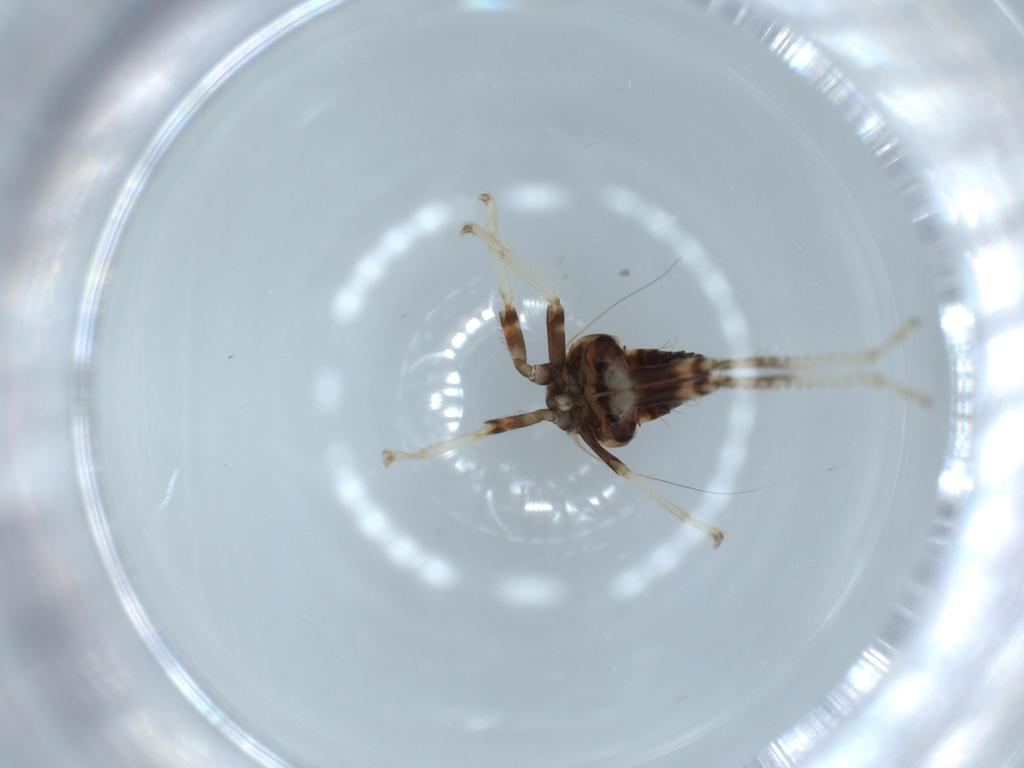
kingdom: Animalia
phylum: Arthropoda
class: Insecta
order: Hemiptera
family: Cicadellidae
